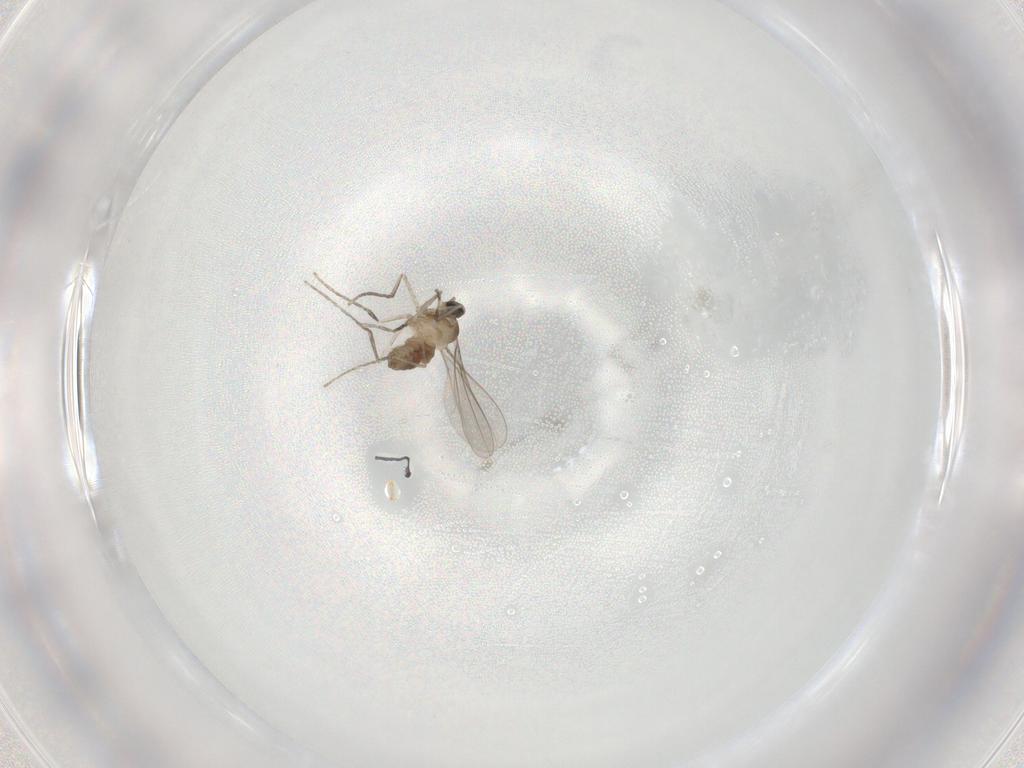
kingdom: Animalia
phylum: Arthropoda
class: Insecta
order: Diptera
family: Cecidomyiidae
